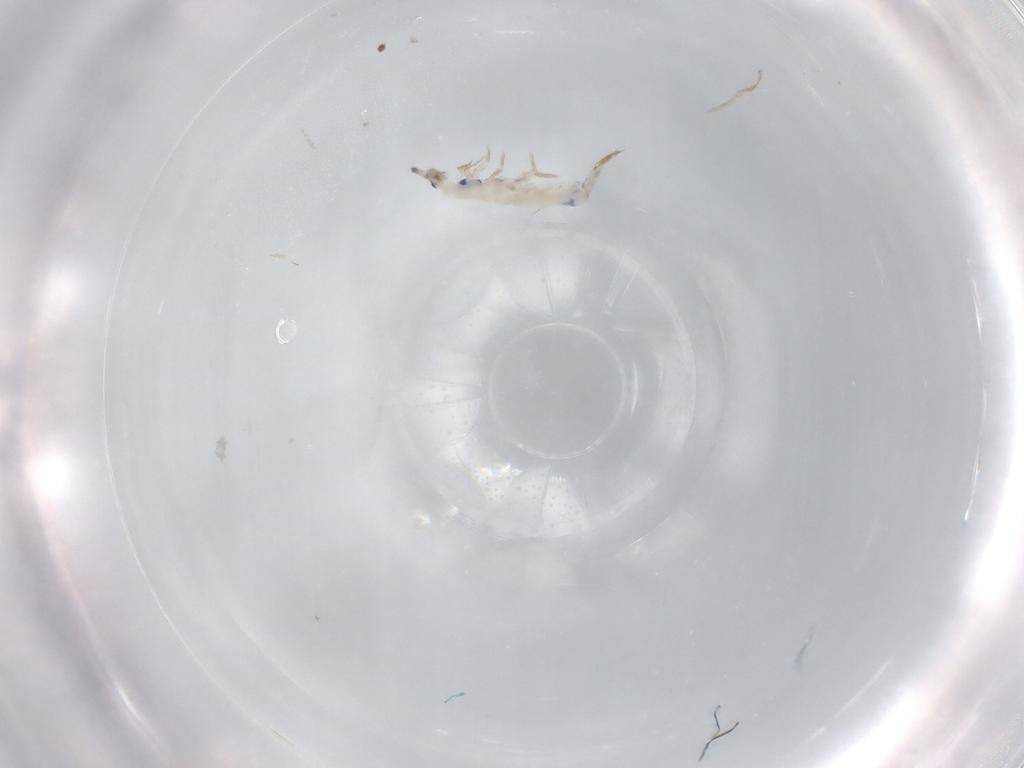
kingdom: Animalia
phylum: Arthropoda
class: Collembola
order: Entomobryomorpha
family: Entomobryidae
